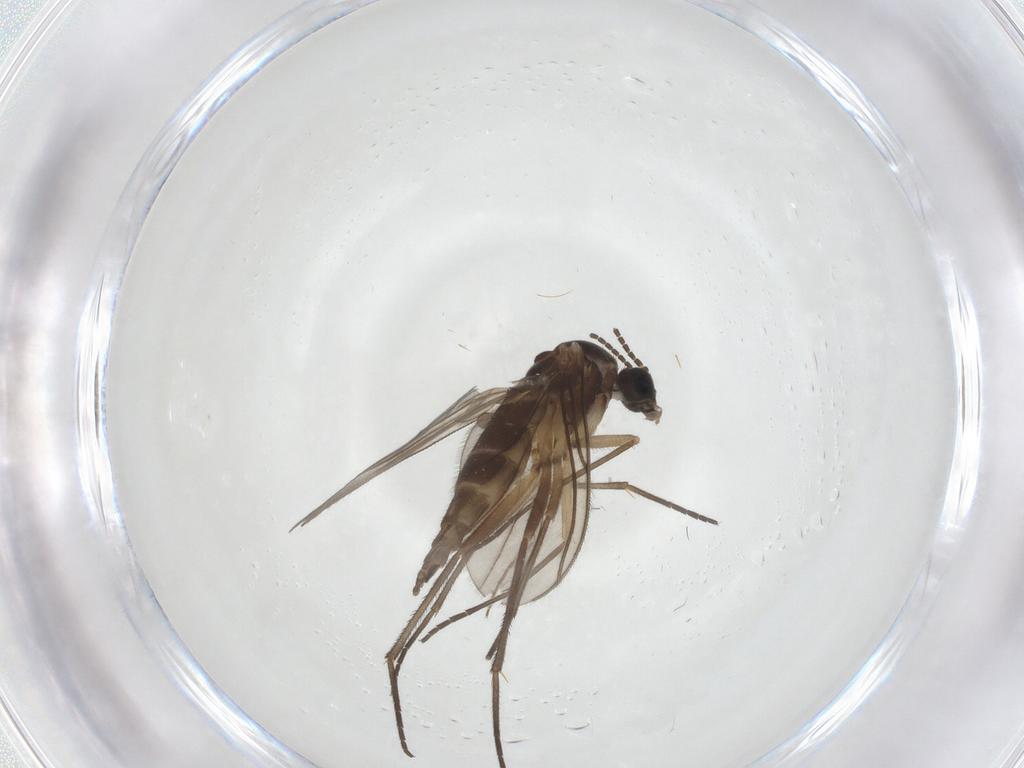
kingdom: Animalia
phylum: Arthropoda
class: Insecta
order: Diptera
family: Sciaridae
